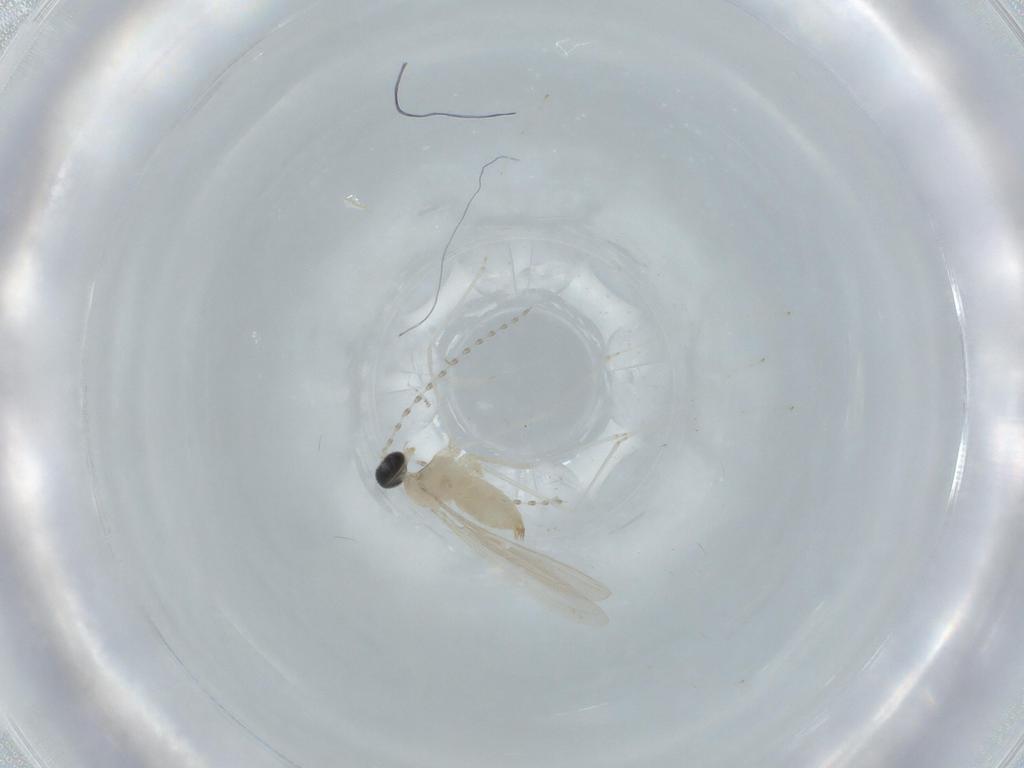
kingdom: Animalia
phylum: Arthropoda
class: Insecta
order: Diptera
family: Cecidomyiidae
